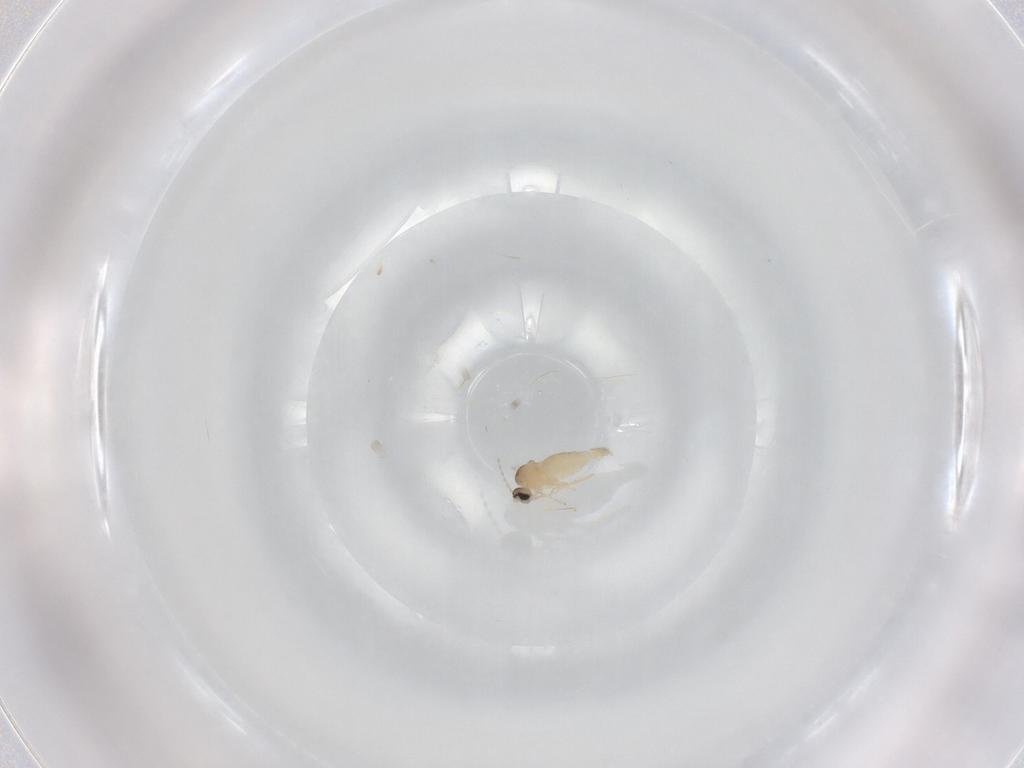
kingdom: Animalia
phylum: Arthropoda
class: Insecta
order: Diptera
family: Cecidomyiidae
